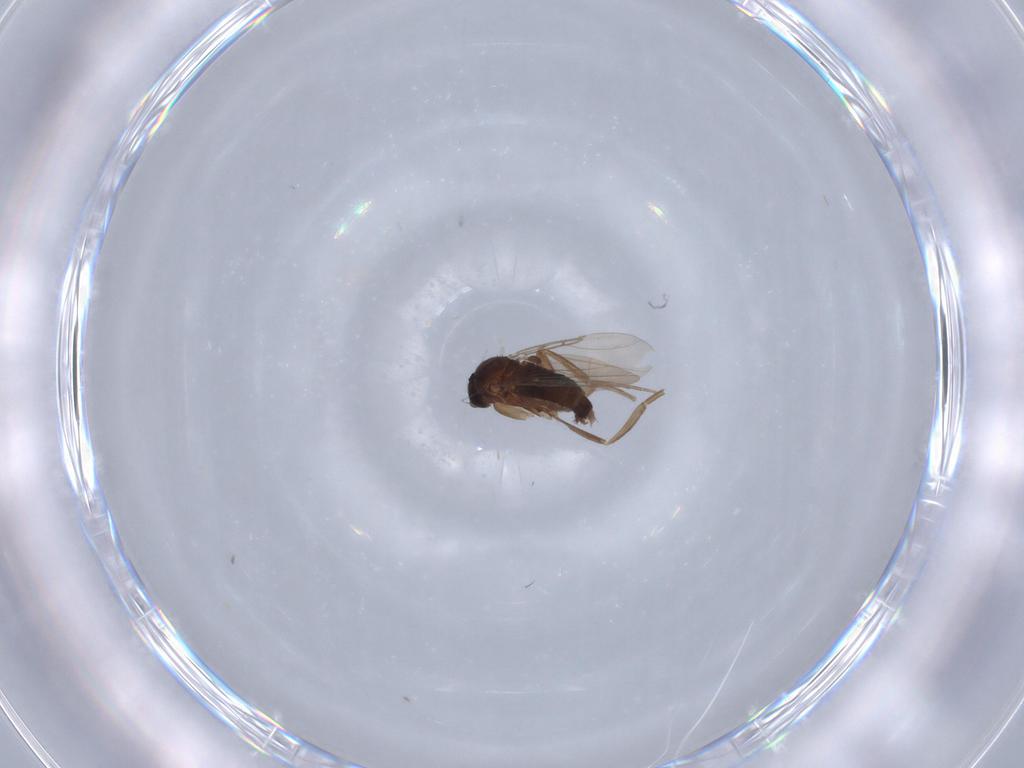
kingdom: Animalia
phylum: Arthropoda
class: Insecta
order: Diptera
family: Phoridae
